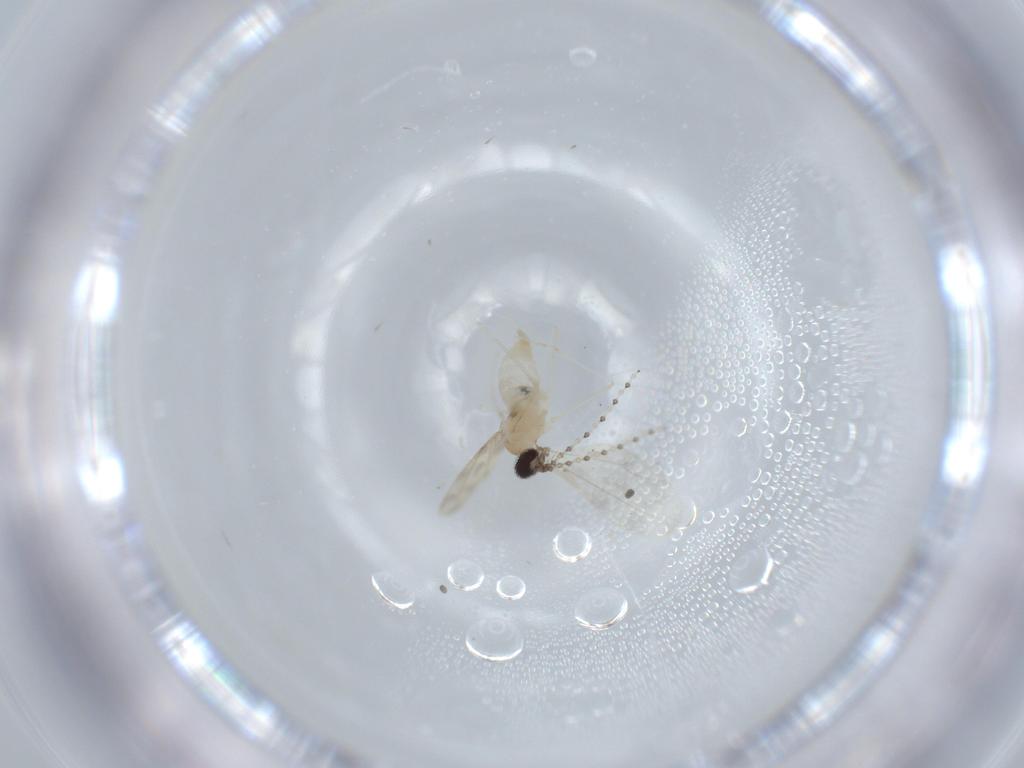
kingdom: Animalia
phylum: Arthropoda
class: Insecta
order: Diptera
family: Cecidomyiidae
